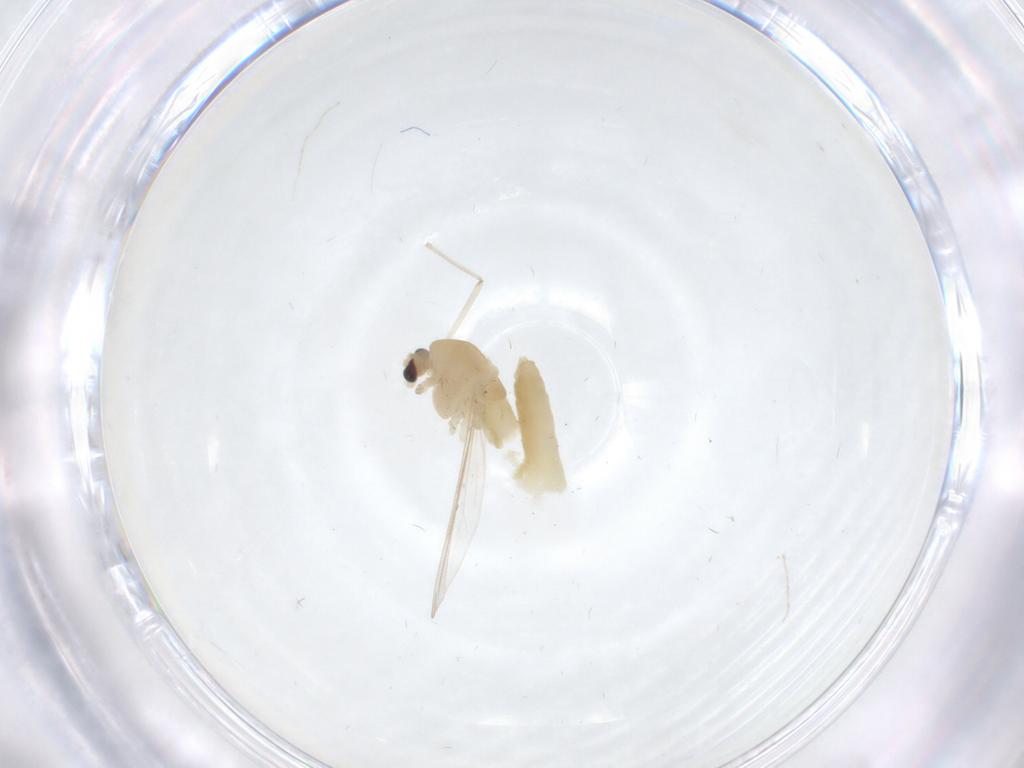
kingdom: Animalia
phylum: Arthropoda
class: Insecta
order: Diptera
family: Chironomidae
